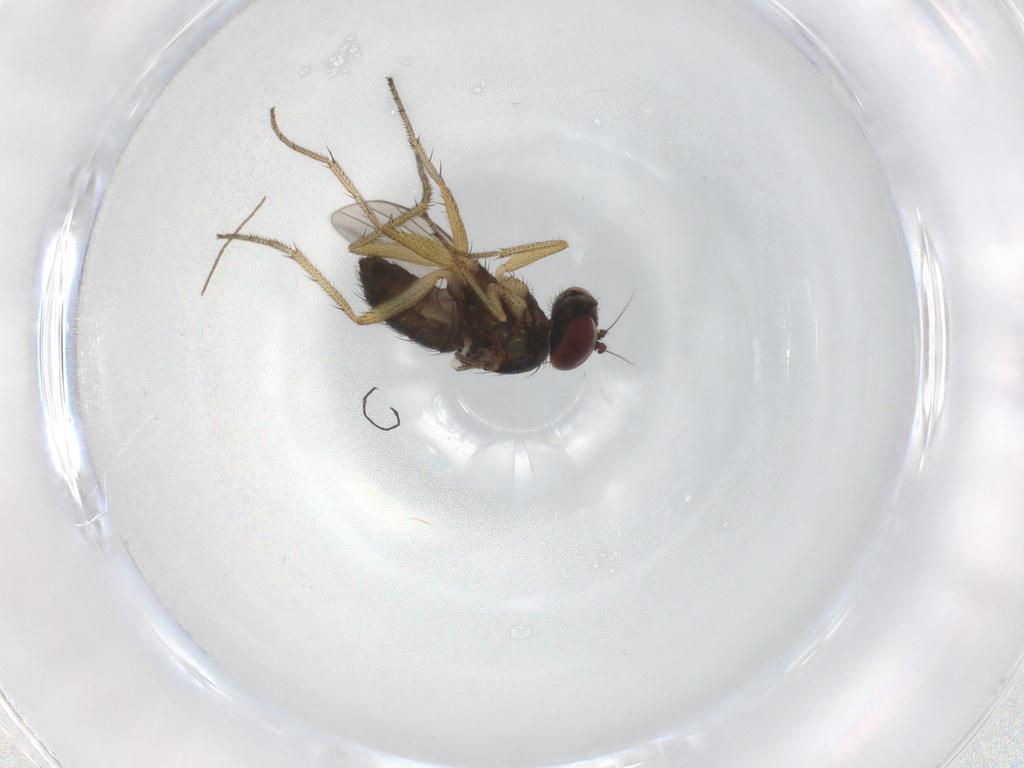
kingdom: Animalia
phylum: Arthropoda
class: Insecta
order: Diptera
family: Dolichopodidae
